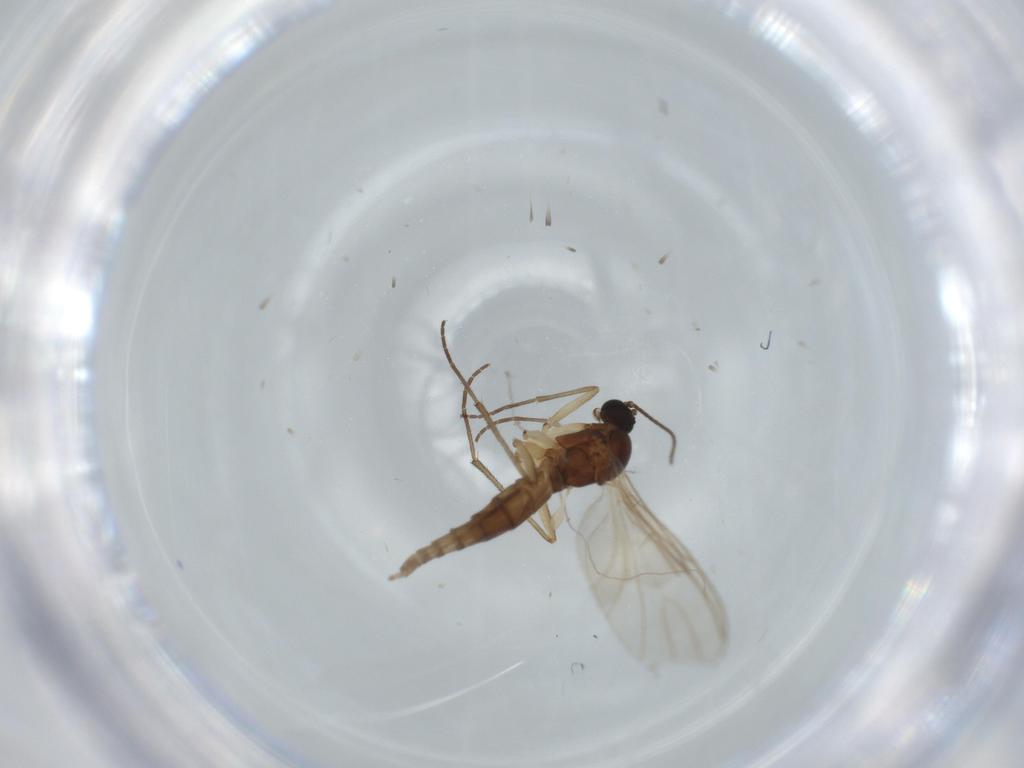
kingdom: Animalia
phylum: Arthropoda
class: Insecta
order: Diptera
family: Sciaridae
